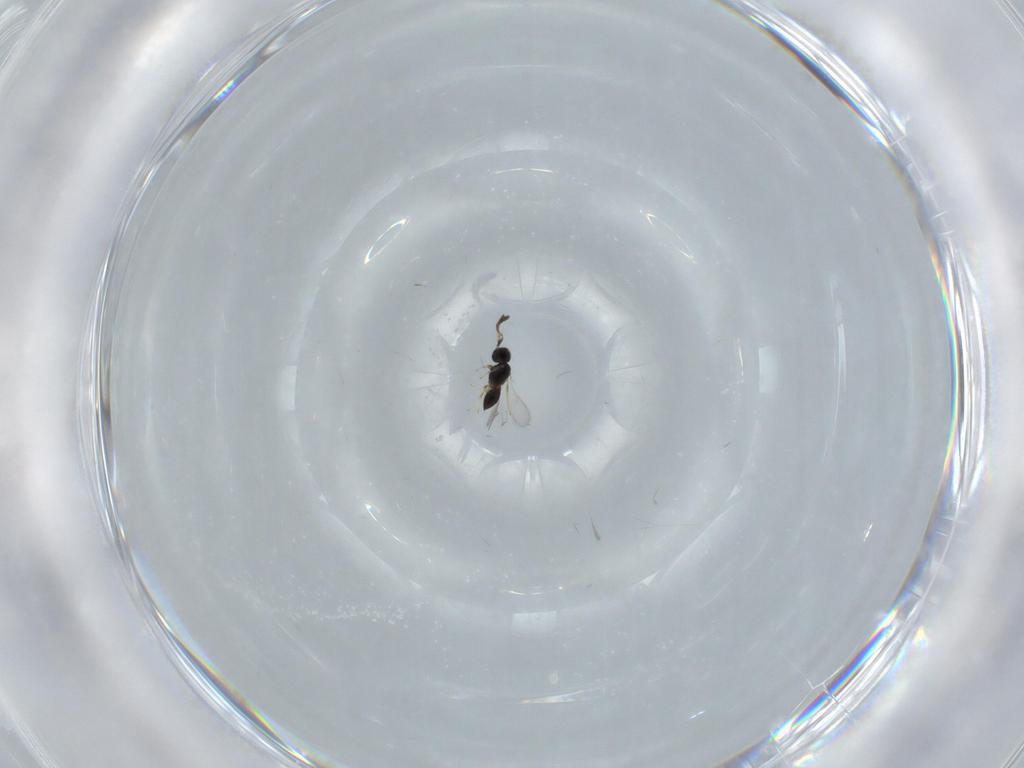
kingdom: Animalia
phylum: Arthropoda
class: Insecta
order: Hymenoptera
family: Scelionidae
